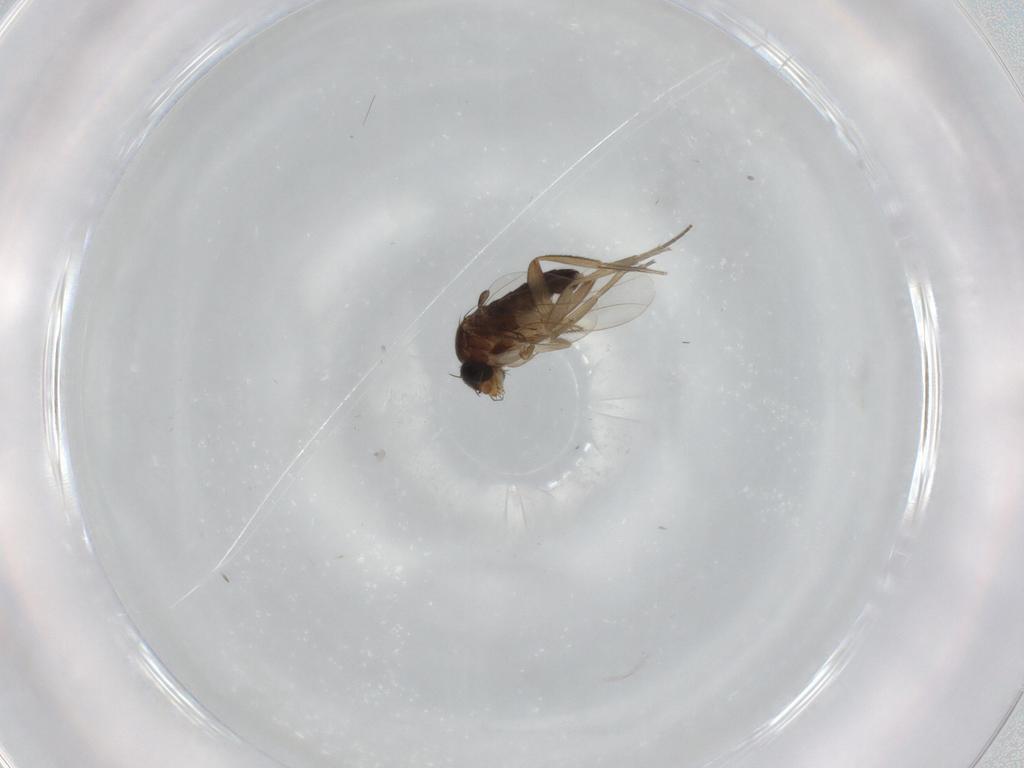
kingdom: Animalia
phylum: Arthropoda
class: Insecta
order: Diptera
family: Phoridae
